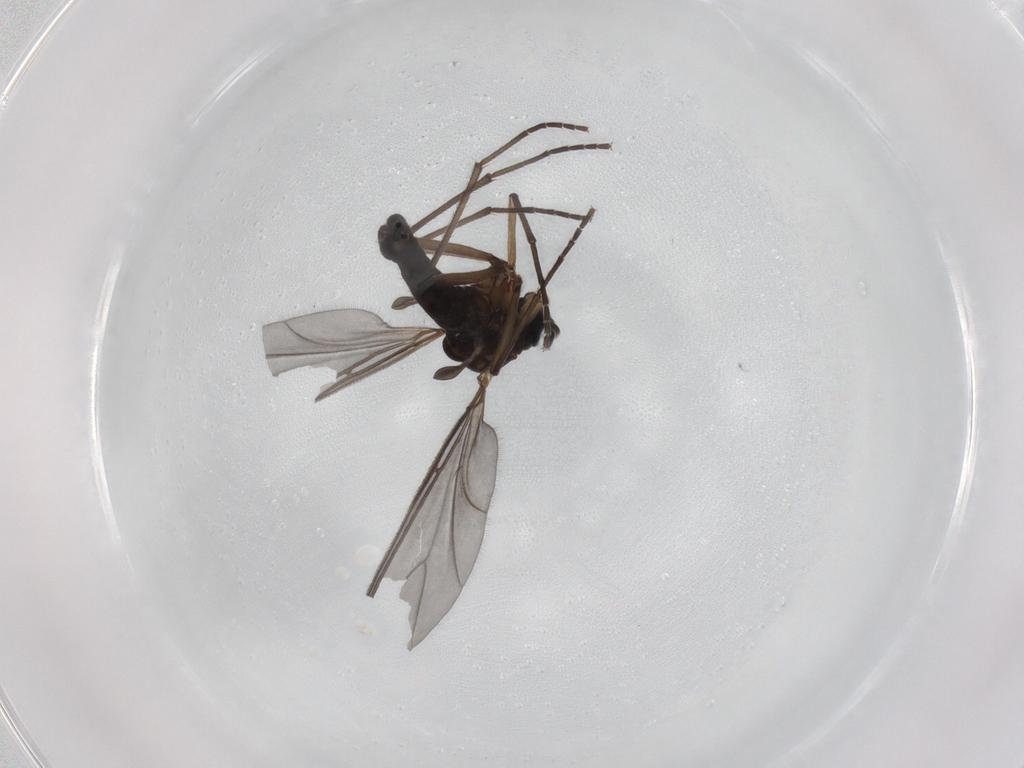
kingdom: Animalia
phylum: Arthropoda
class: Insecta
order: Diptera
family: Sciaridae
